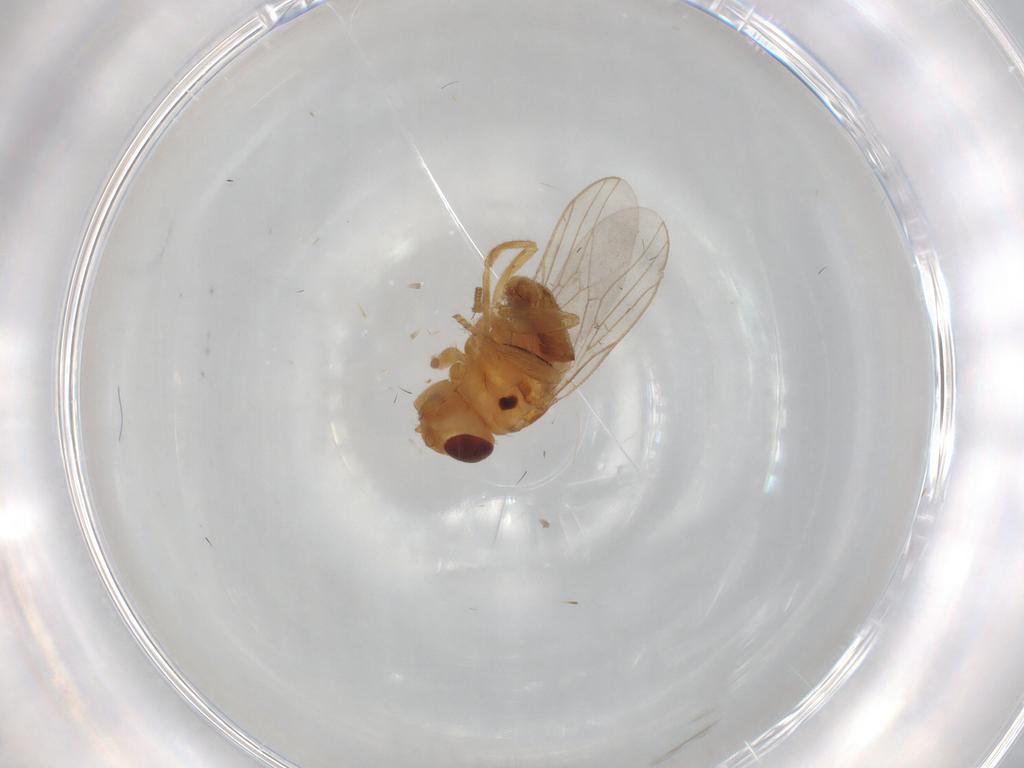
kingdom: Animalia
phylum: Arthropoda
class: Insecta
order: Diptera
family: Chloropidae
